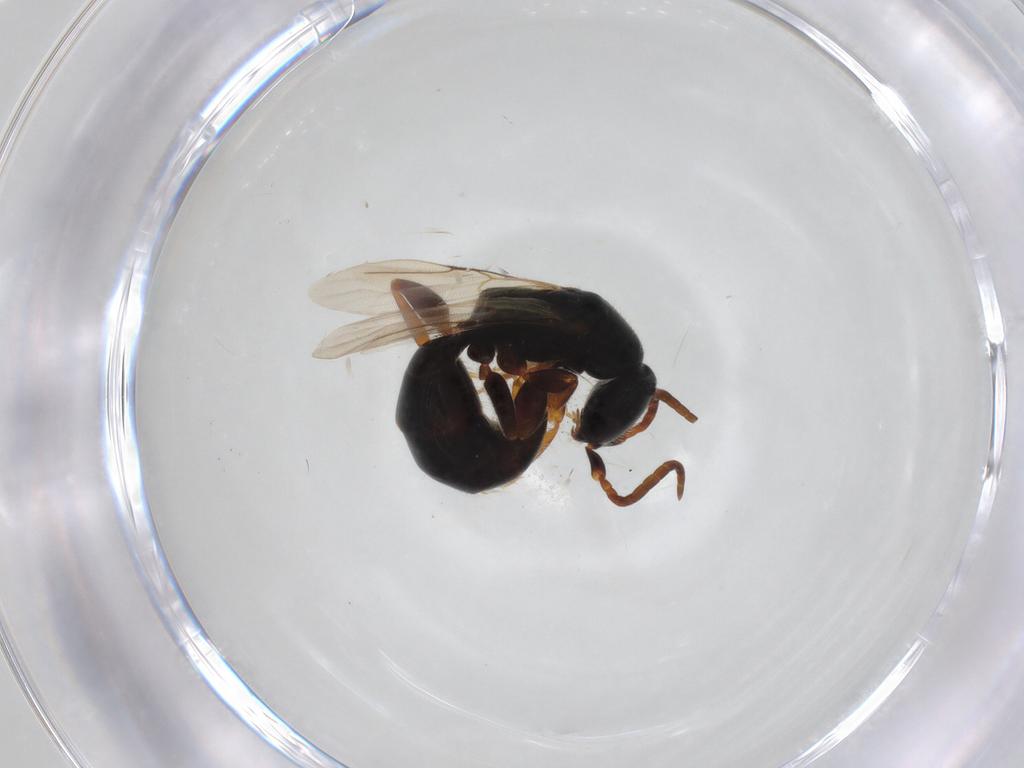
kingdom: Animalia
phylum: Arthropoda
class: Insecta
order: Hymenoptera
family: Bethylidae
